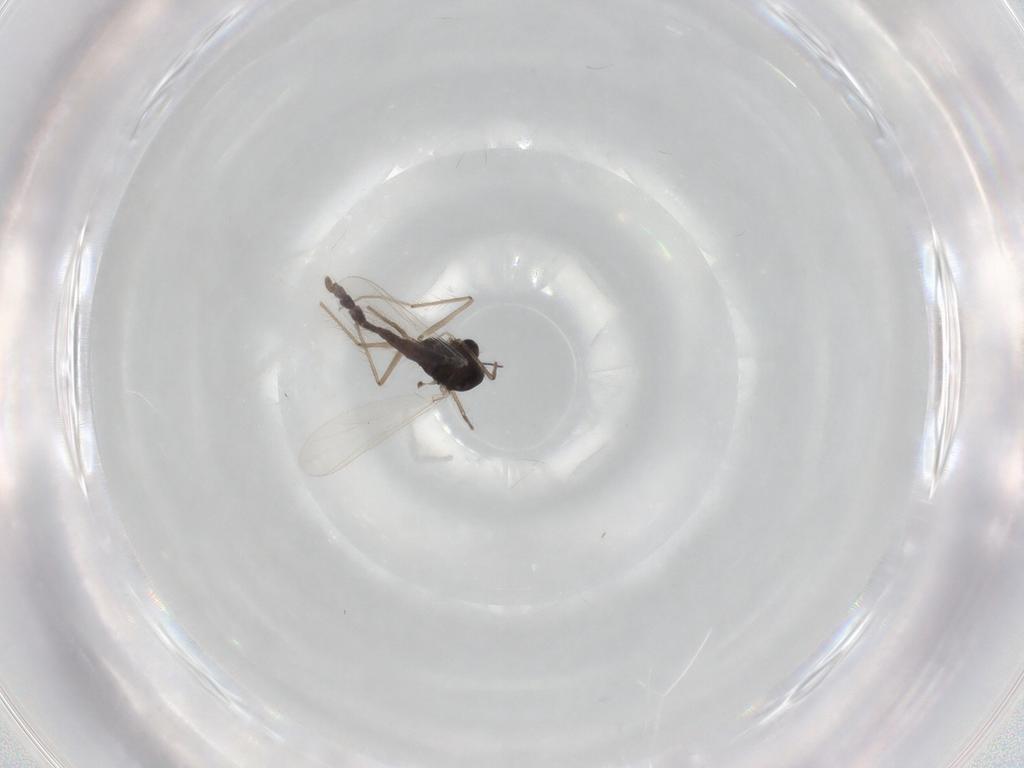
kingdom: Animalia
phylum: Arthropoda
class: Insecta
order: Diptera
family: Chironomidae
